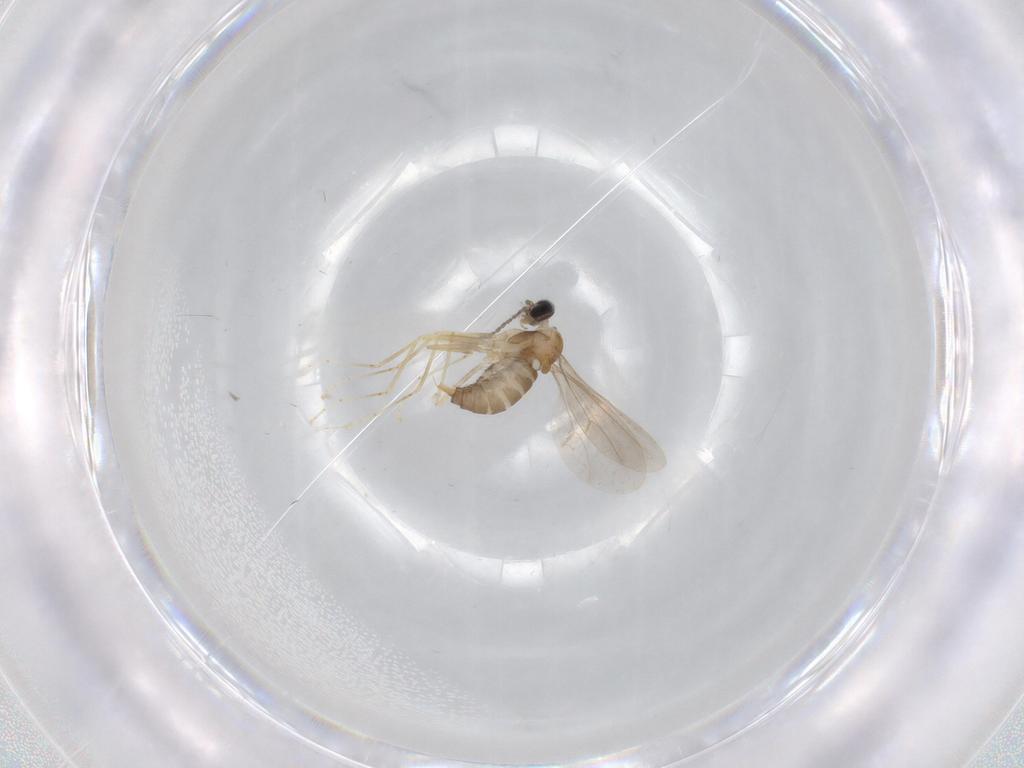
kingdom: Animalia
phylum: Arthropoda
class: Insecta
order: Diptera
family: Cecidomyiidae
